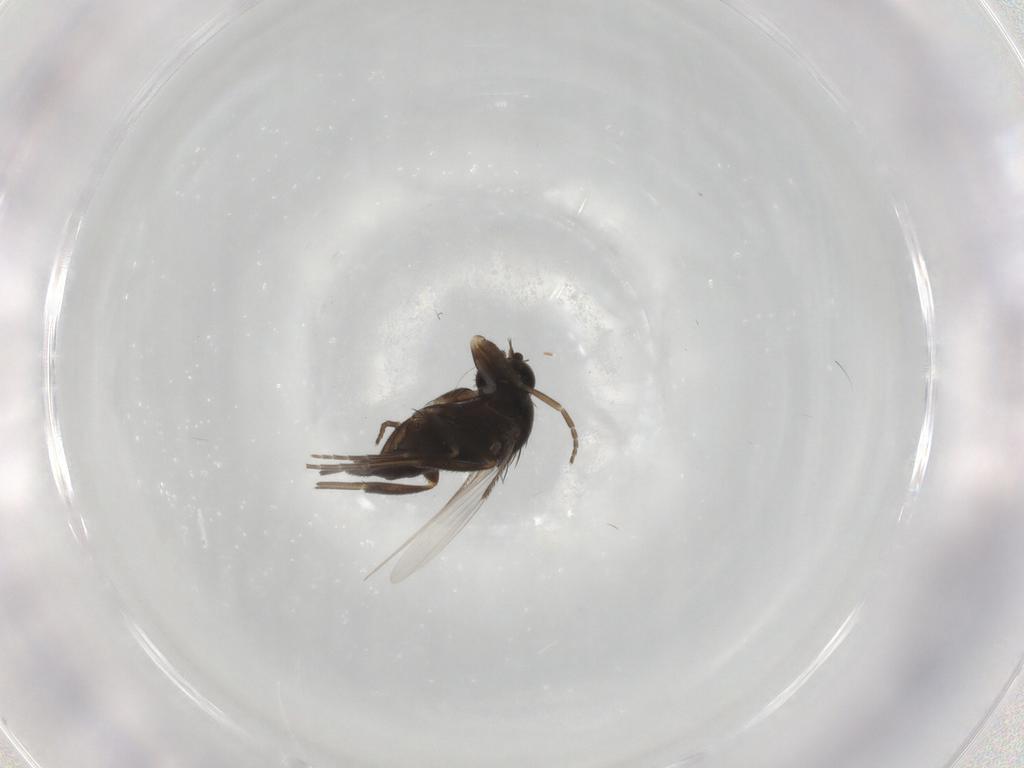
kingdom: Animalia
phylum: Arthropoda
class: Insecta
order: Diptera
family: Phoridae
